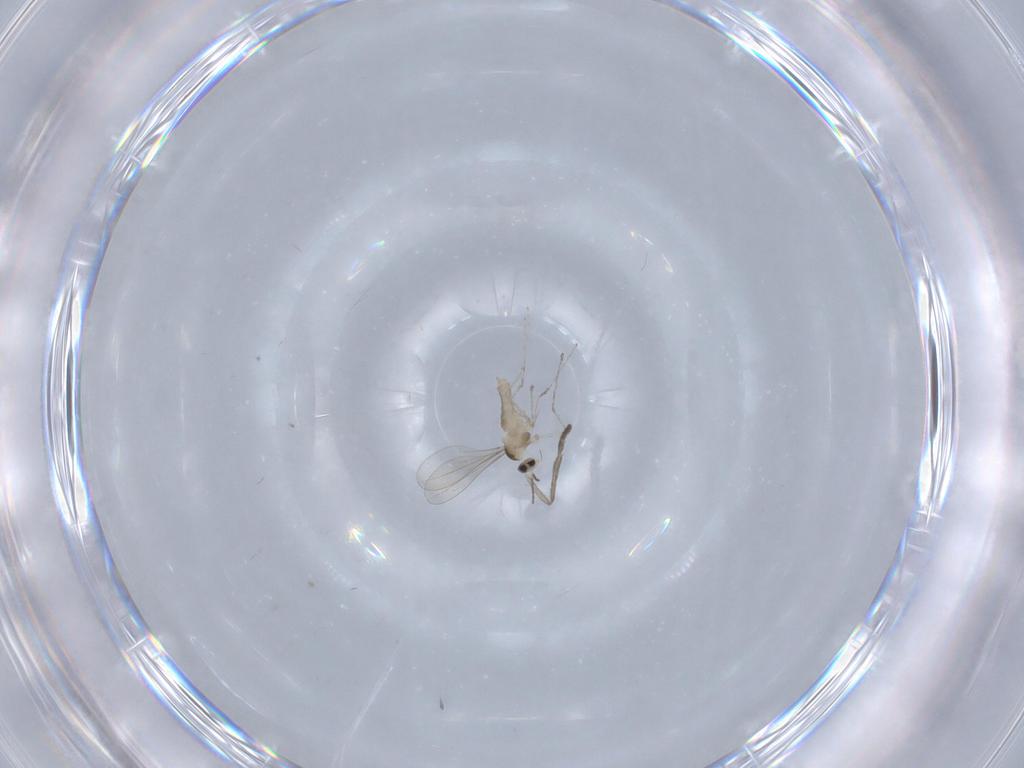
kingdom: Animalia
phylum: Arthropoda
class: Insecta
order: Diptera
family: Cecidomyiidae
